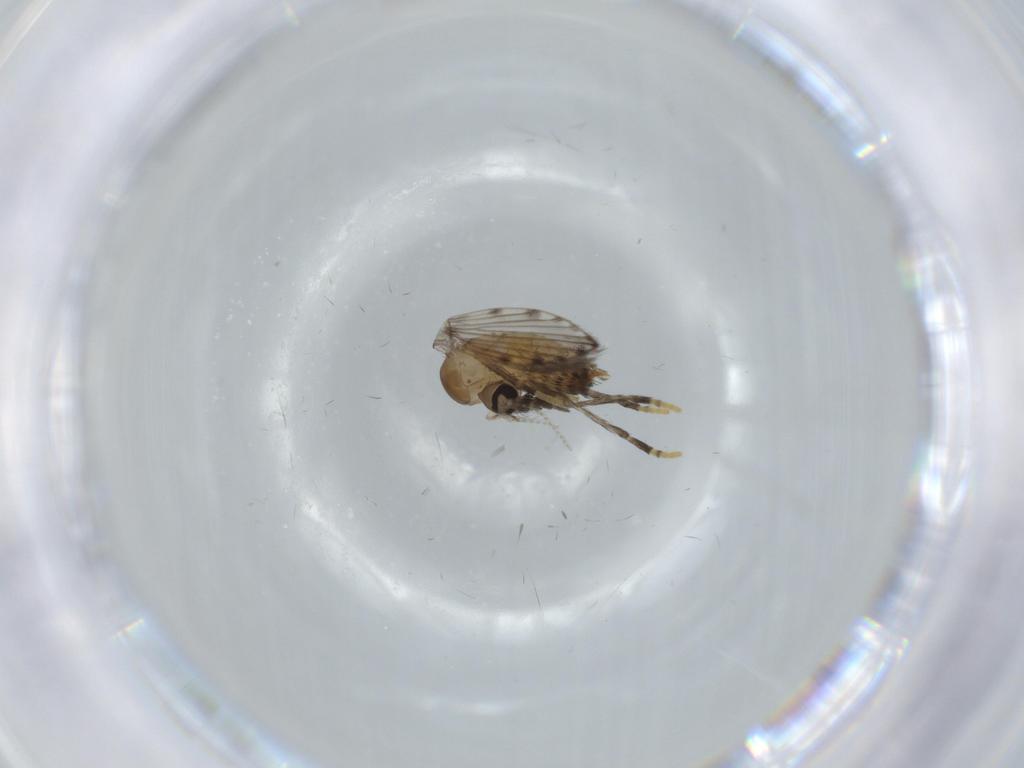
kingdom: Animalia
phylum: Arthropoda
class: Insecta
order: Diptera
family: Psychodidae
